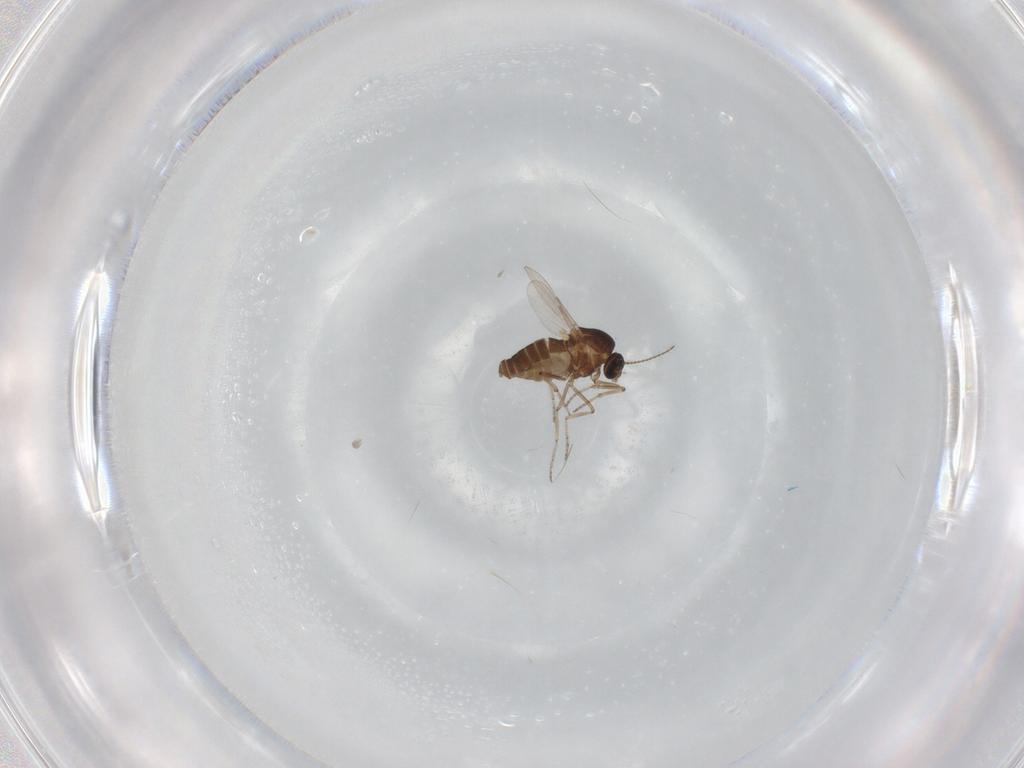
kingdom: Animalia
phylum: Arthropoda
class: Insecta
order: Diptera
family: Ceratopogonidae
